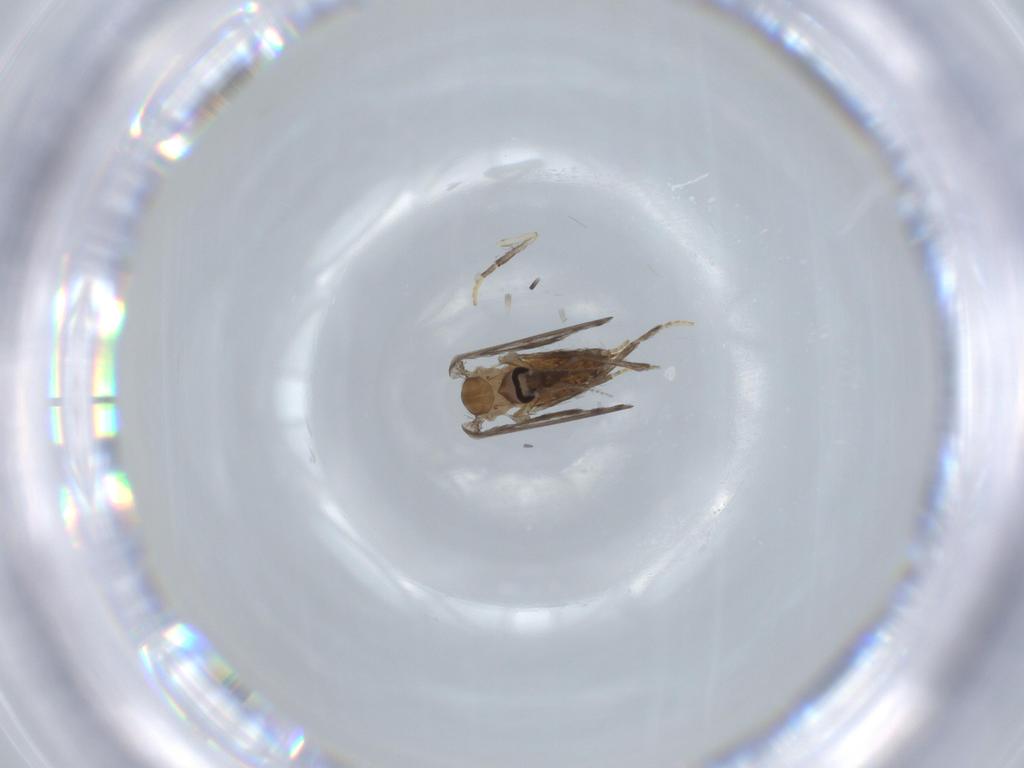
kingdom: Animalia
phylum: Arthropoda
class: Insecta
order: Diptera
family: Psychodidae
